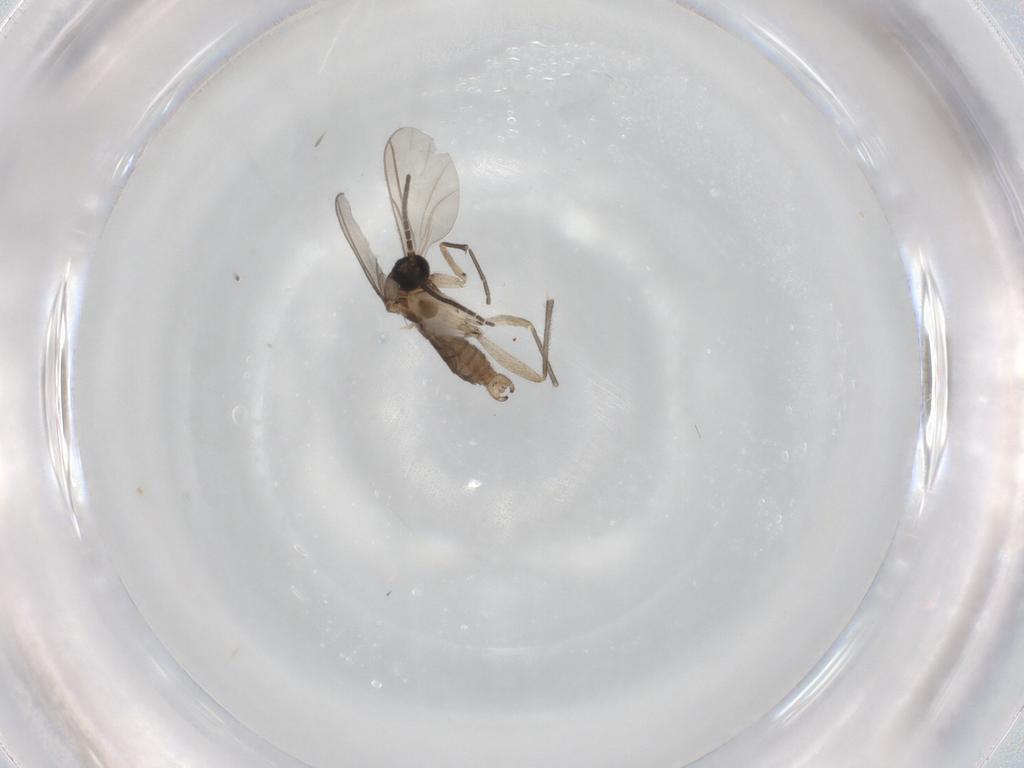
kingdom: Animalia
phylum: Arthropoda
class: Insecta
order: Diptera
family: Sciaridae
